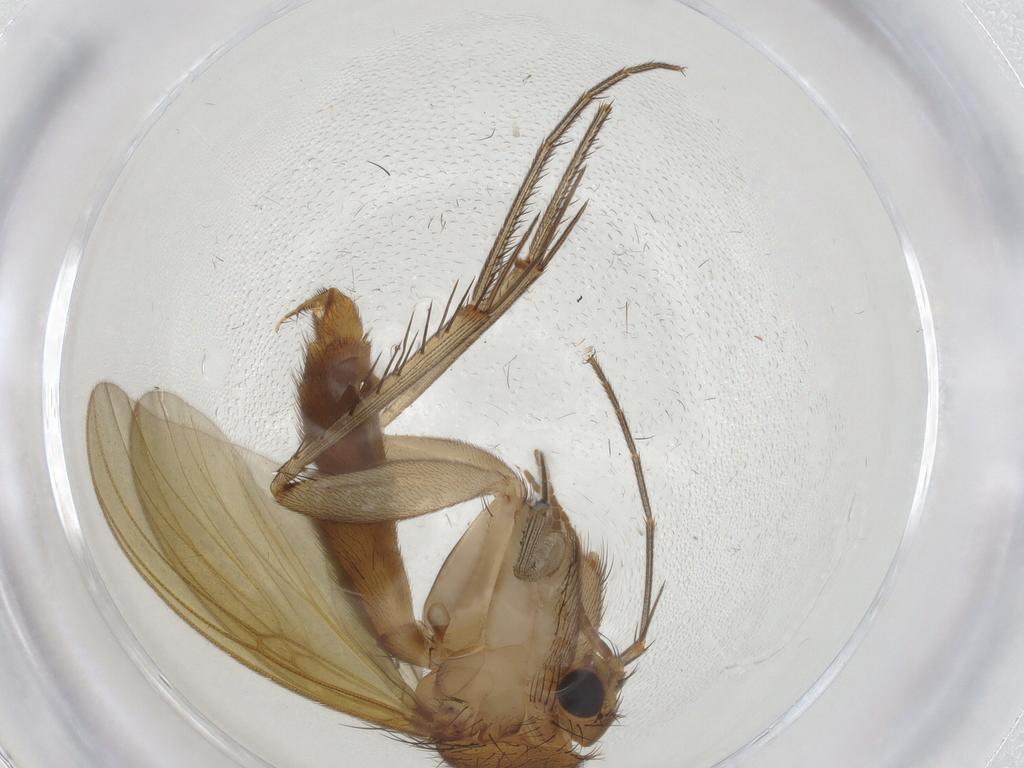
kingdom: Animalia
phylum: Arthropoda
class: Insecta
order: Diptera
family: Mycetophilidae
